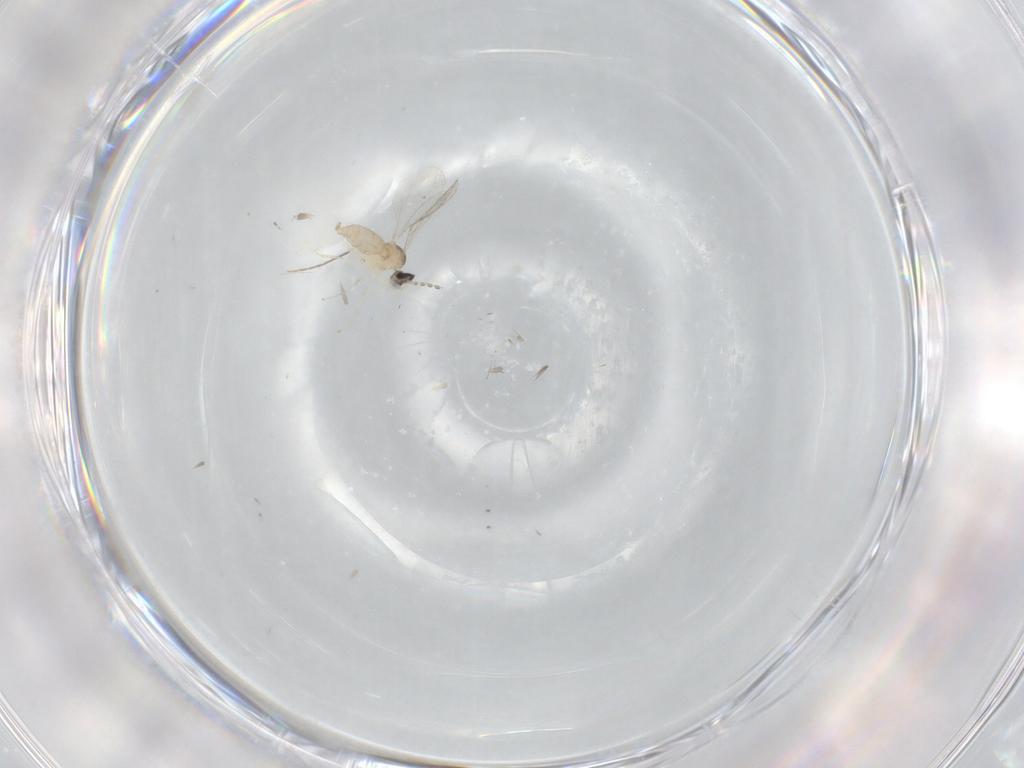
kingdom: Animalia
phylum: Arthropoda
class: Insecta
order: Diptera
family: Cecidomyiidae
